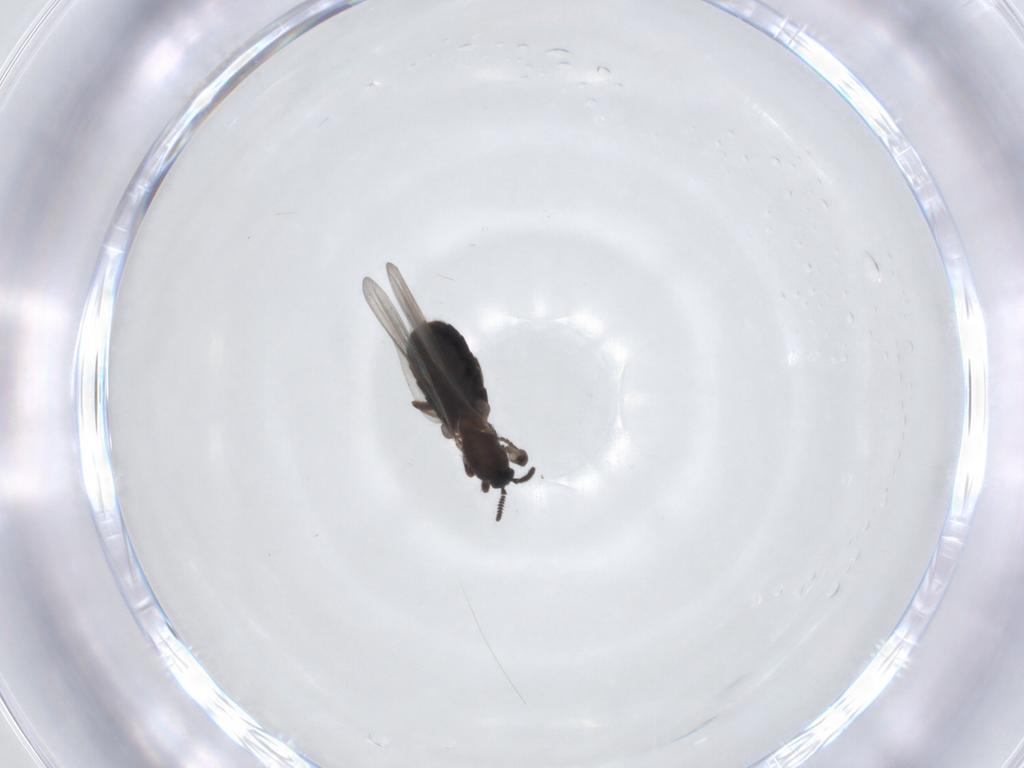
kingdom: Animalia
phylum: Arthropoda
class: Insecta
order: Diptera
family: Scatopsidae
